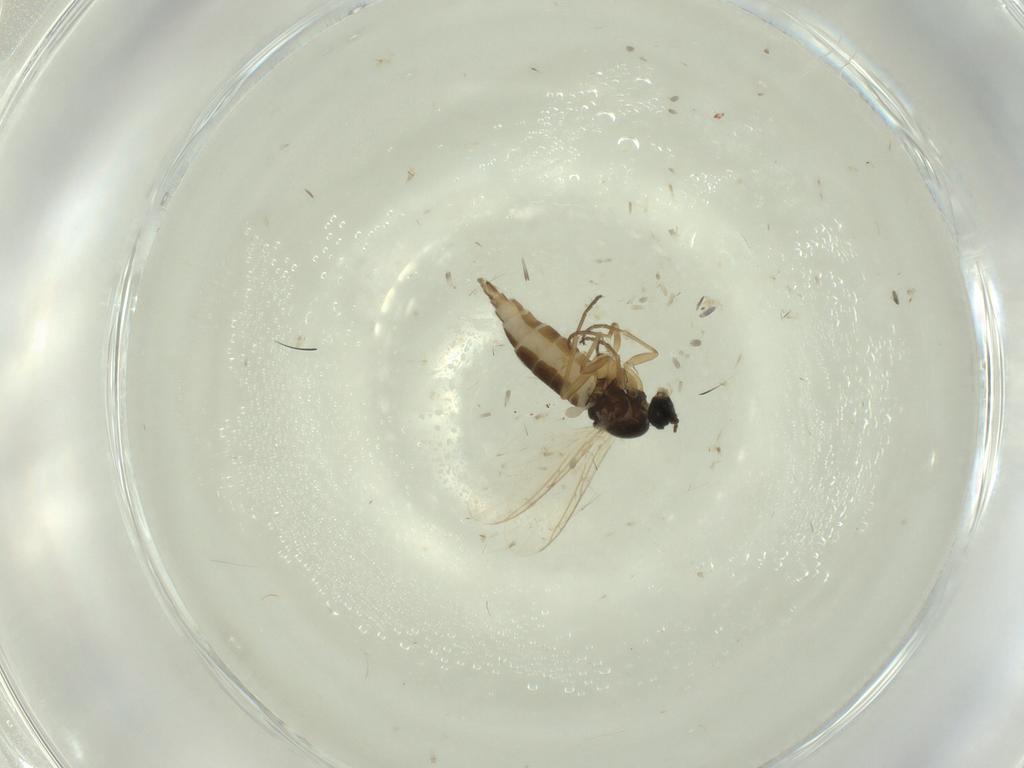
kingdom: Animalia
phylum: Arthropoda
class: Insecta
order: Diptera
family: Sciaridae
